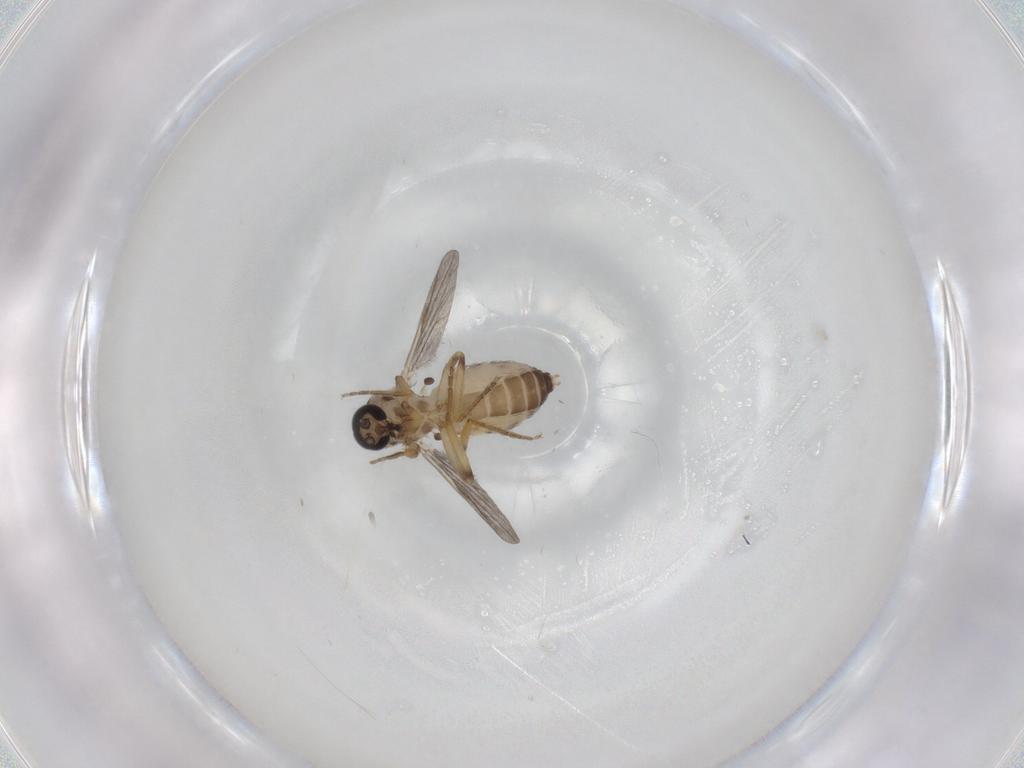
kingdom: Animalia
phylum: Arthropoda
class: Insecta
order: Diptera
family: Ceratopogonidae
